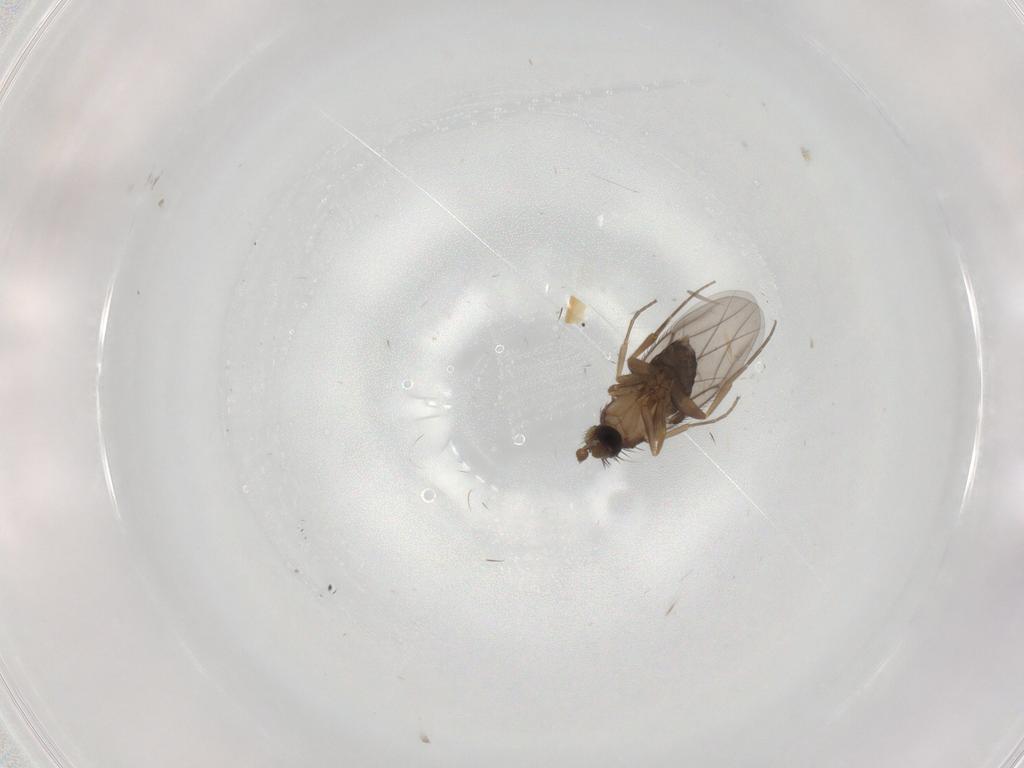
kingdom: Animalia
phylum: Arthropoda
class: Insecta
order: Diptera
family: Phoridae
